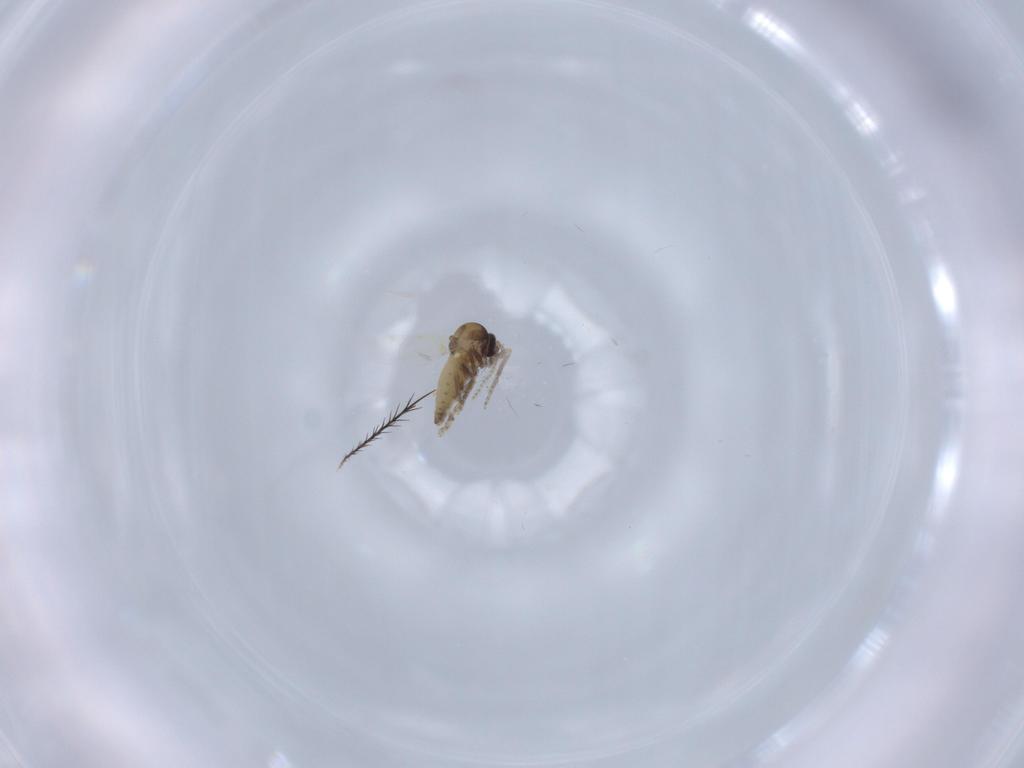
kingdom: Animalia
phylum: Arthropoda
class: Insecta
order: Diptera
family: Ceratopogonidae
